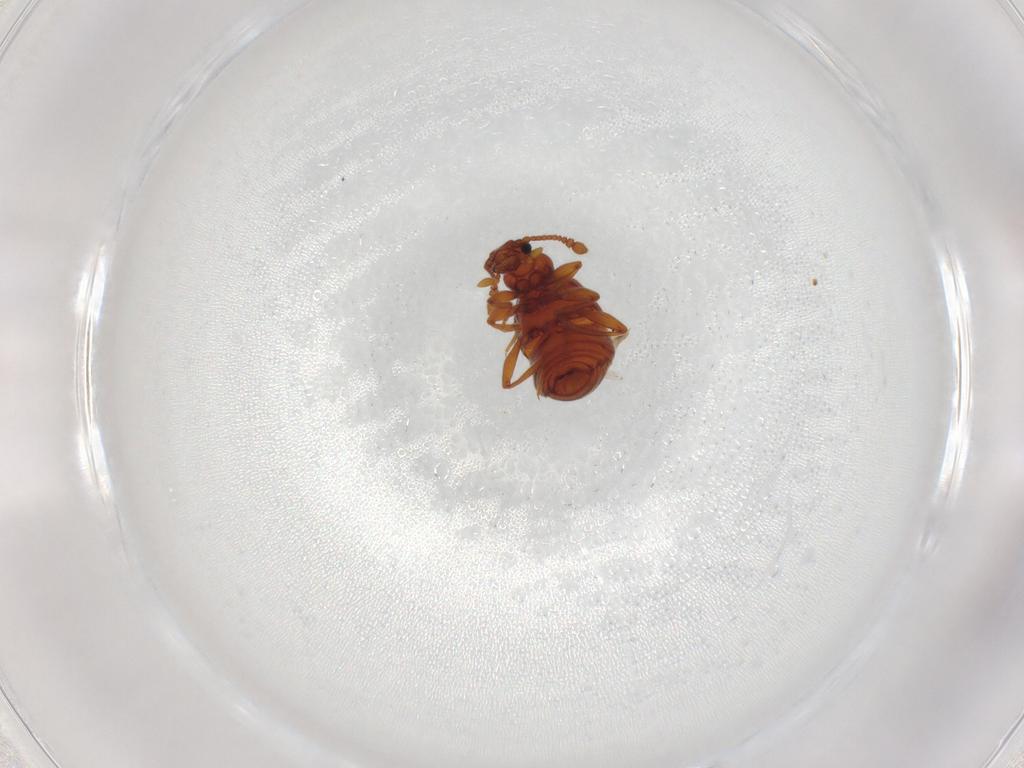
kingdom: Animalia
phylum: Arthropoda
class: Insecta
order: Coleoptera
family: Staphylinidae
